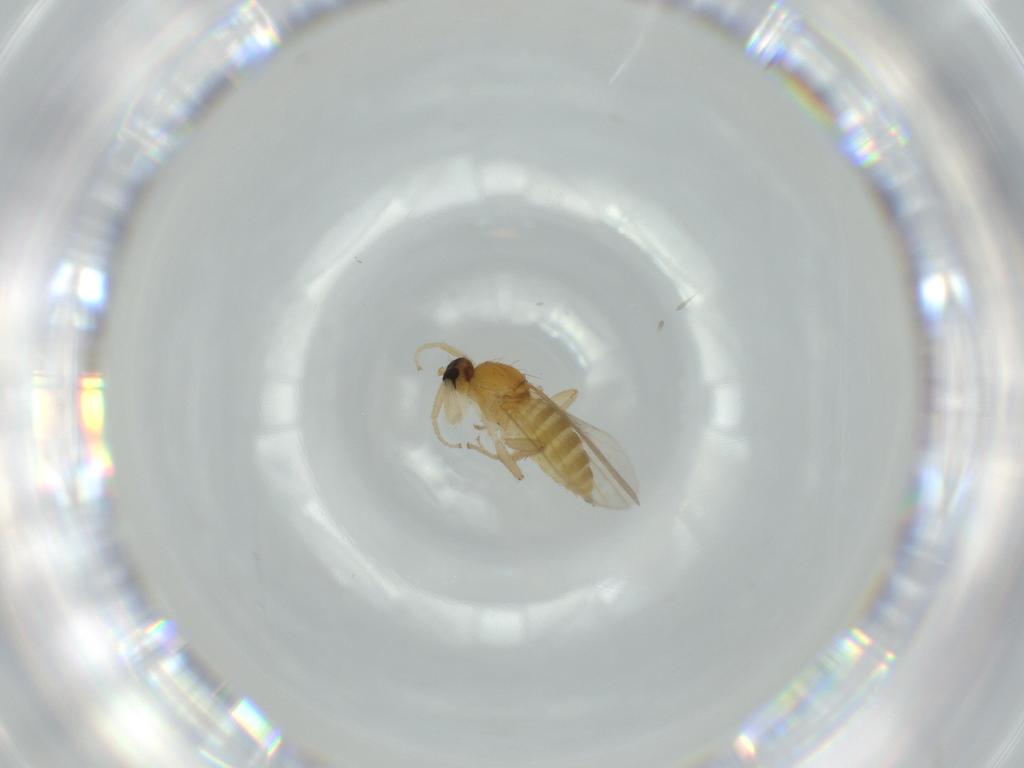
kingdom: Animalia
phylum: Arthropoda
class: Insecta
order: Diptera
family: Hybotidae
